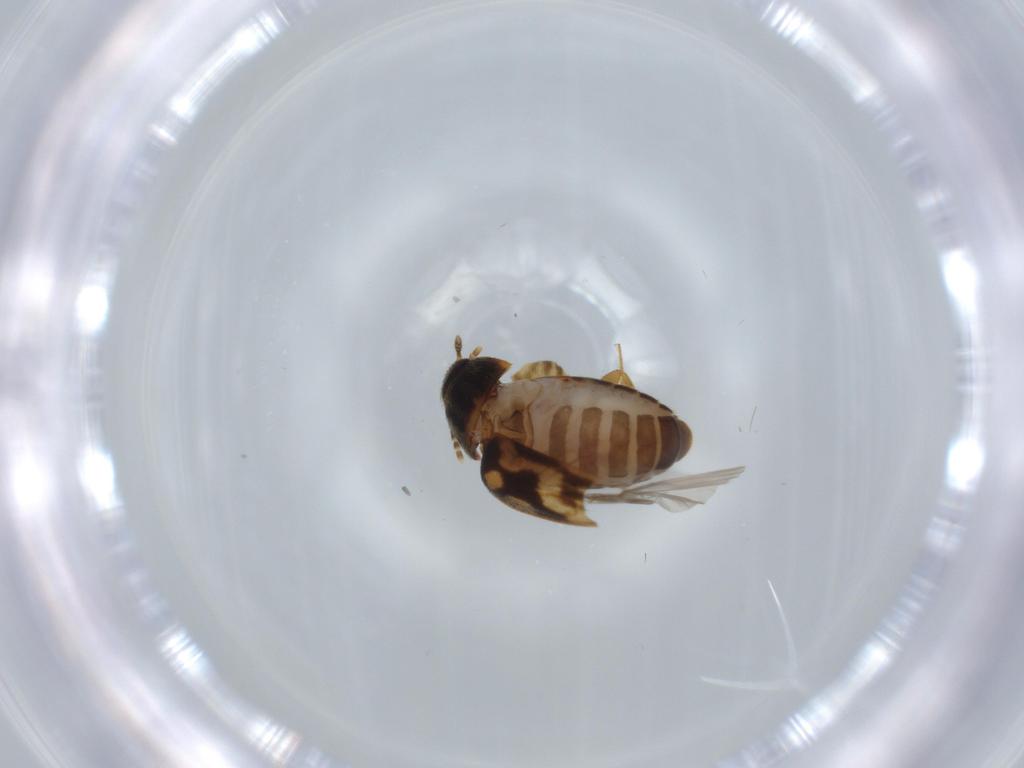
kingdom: Animalia
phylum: Arthropoda
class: Insecta
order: Coleoptera
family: Mycetophagidae
